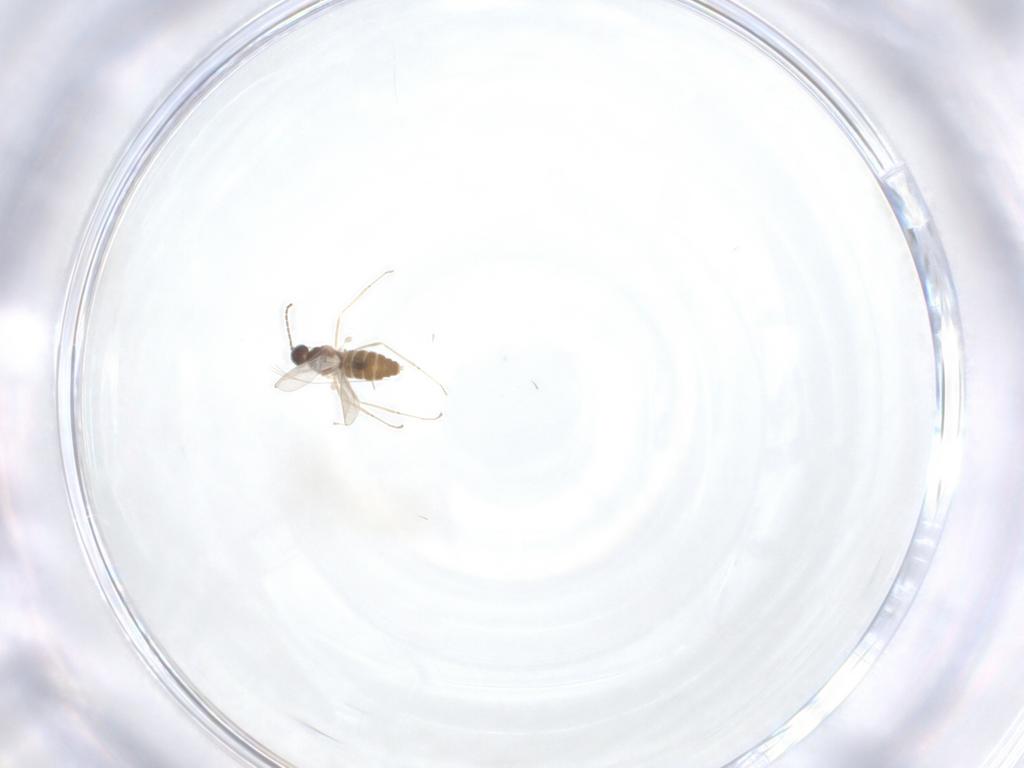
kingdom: Animalia
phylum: Arthropoda
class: Insecta
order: Diptera
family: Cecidomyiidae
